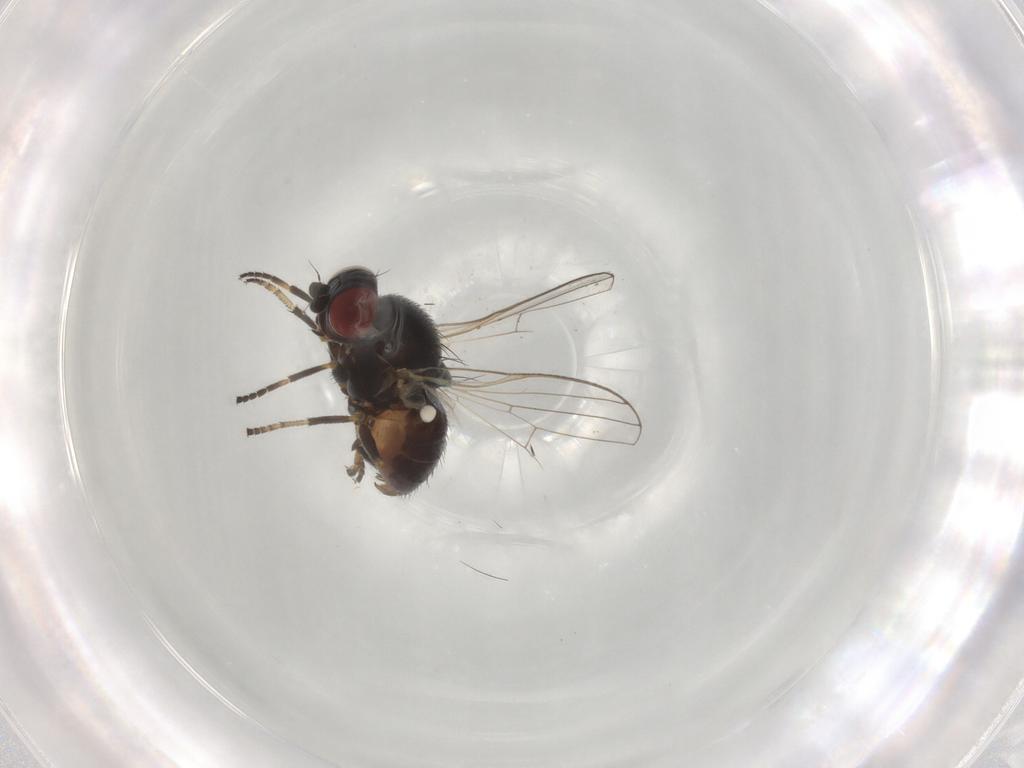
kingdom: Animalia
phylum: Arthropoda
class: Insecta
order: Diptera
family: Chamaemyiidae
